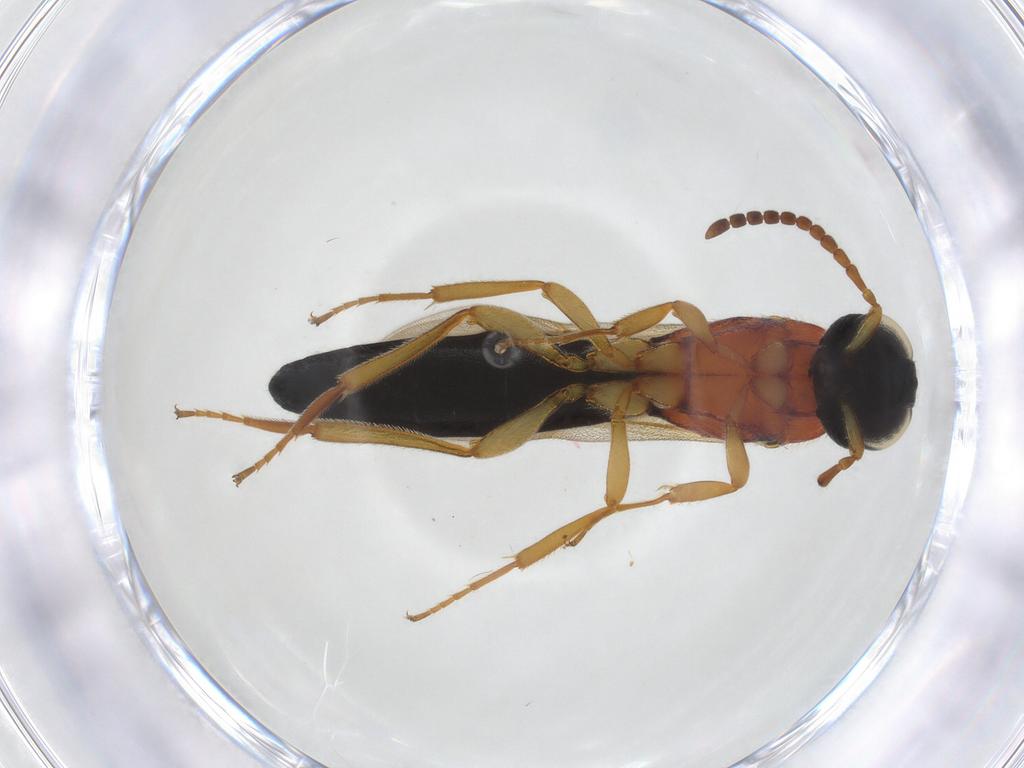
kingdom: Animalia
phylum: Arthropoda
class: Insecta
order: Hymenoptera
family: Scelionidae
